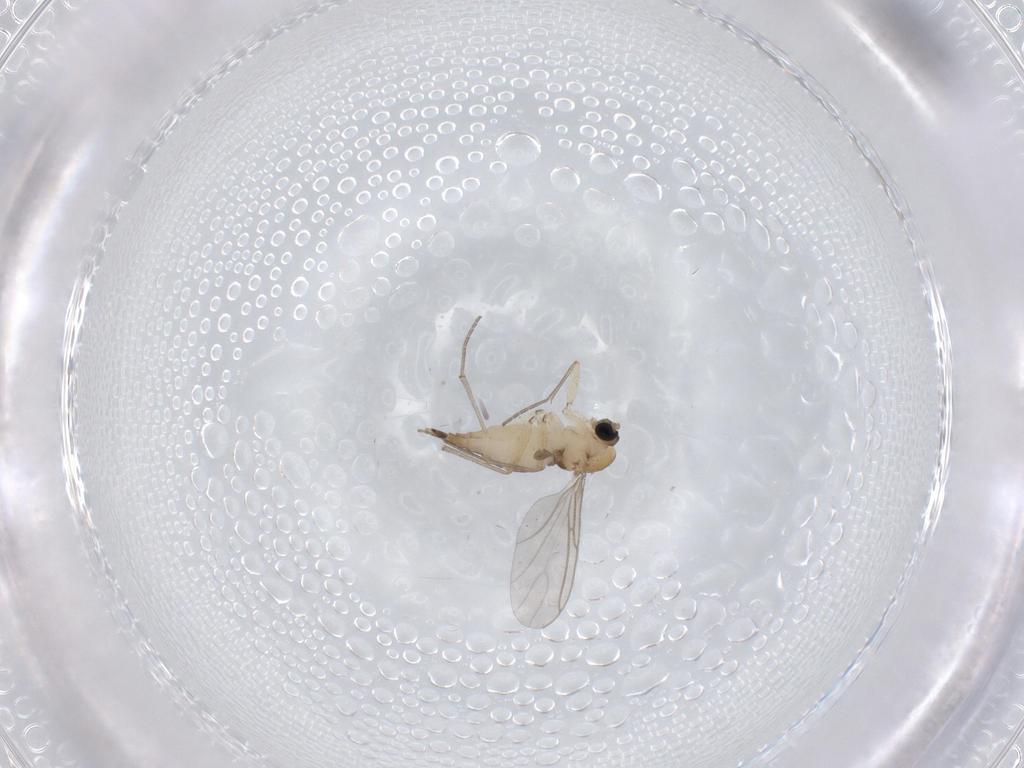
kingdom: Animalia
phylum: Arthropoda
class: Insecta
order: Diptera
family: Sciaridae
